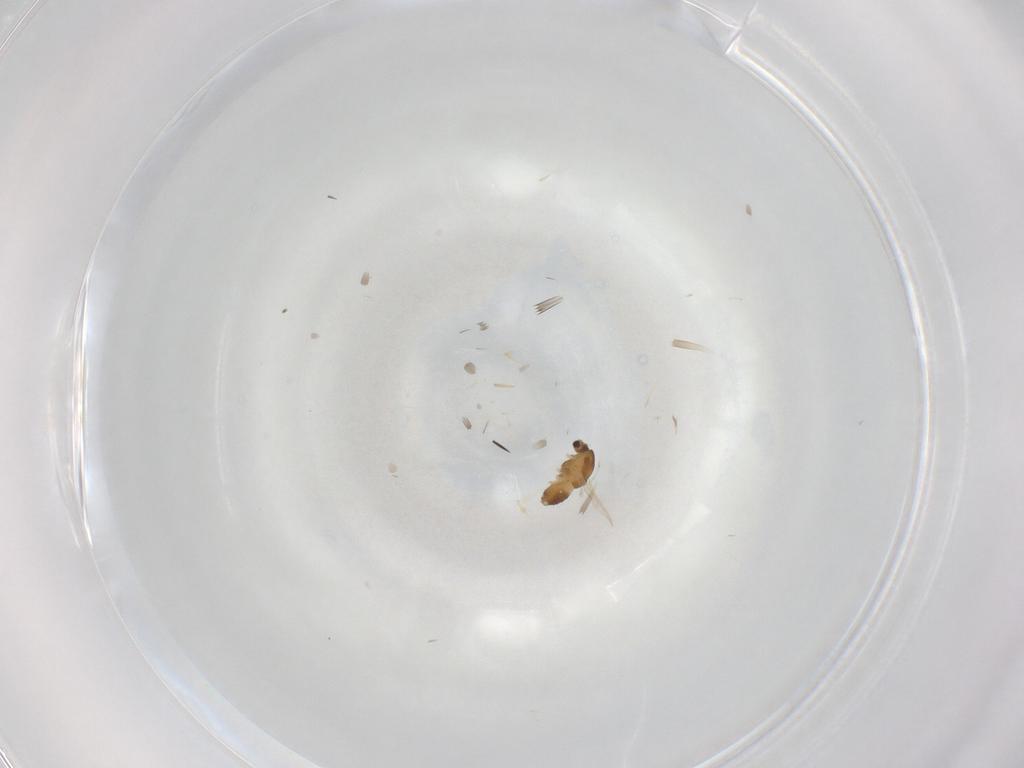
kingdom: Animalia
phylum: Arthropoda
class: Insecta
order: Diptera
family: Chironomidae
